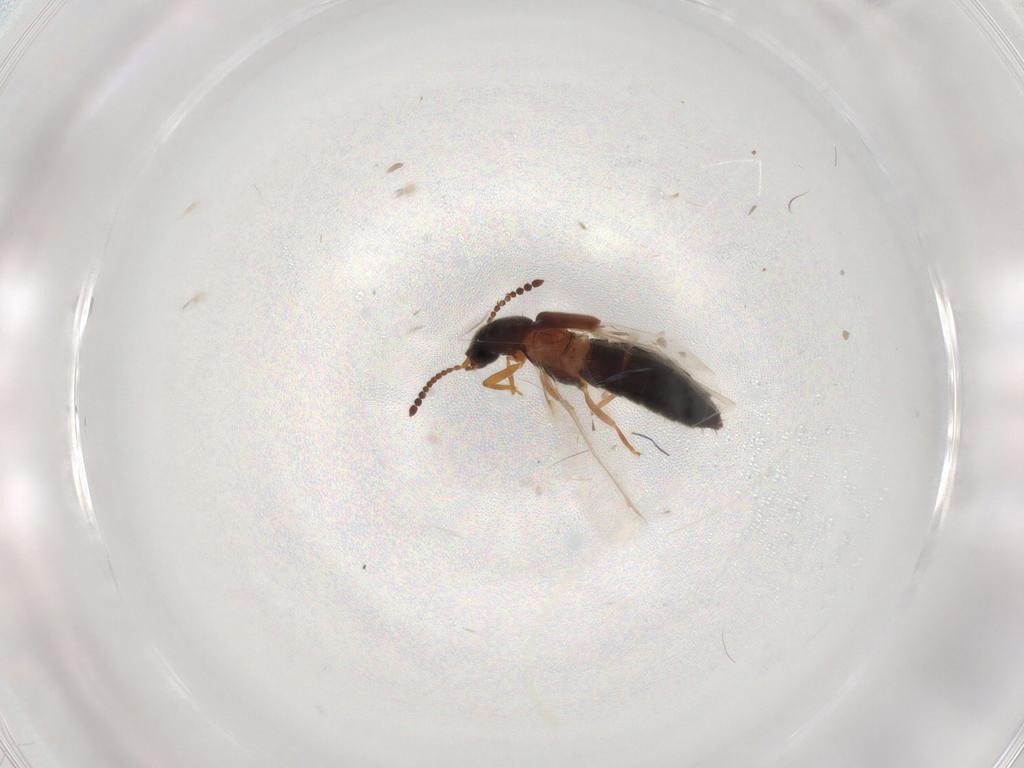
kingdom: Animalia
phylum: Arthropoda
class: Insecta
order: Coleoptera
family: Staphylinidae
